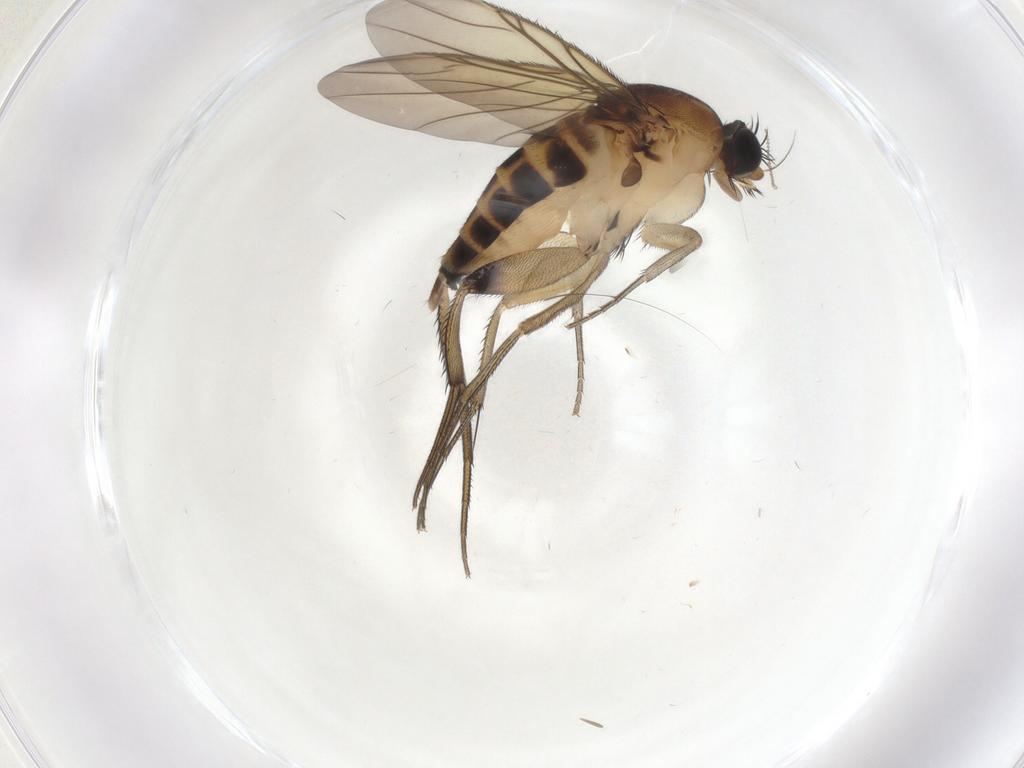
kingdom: Animalia
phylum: Arthropoda
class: Insecta
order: Diptera
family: Phoridae
